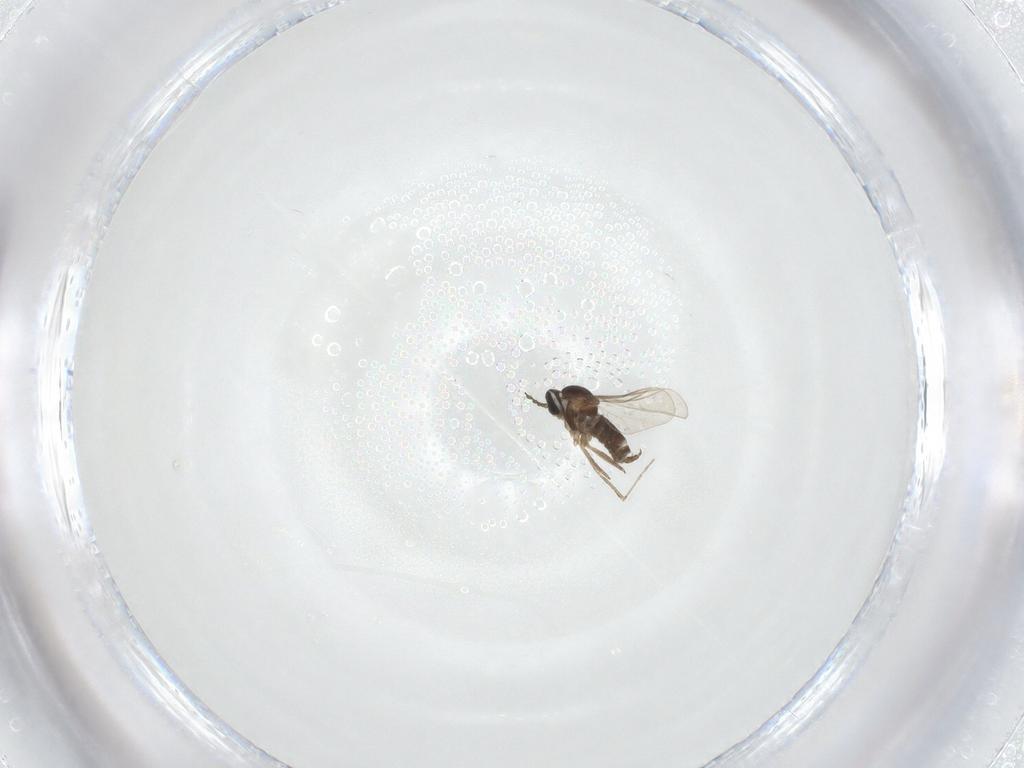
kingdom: Animalia
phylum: Arthropoda
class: Insecta
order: Diptera
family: Cecidomyiidae
